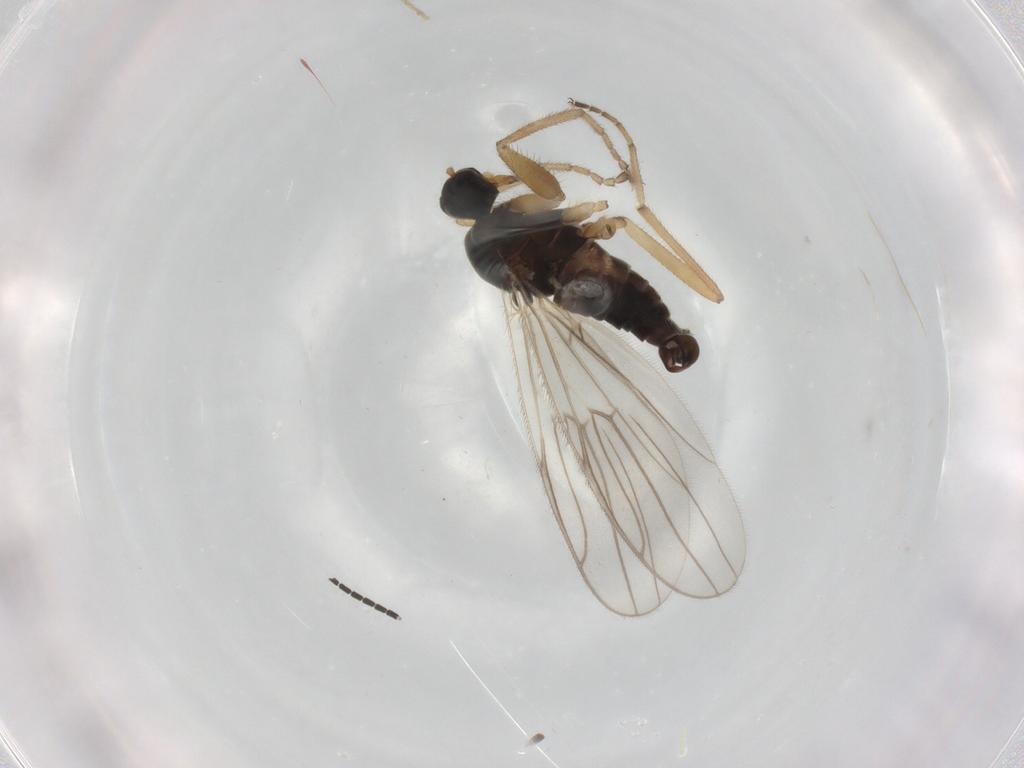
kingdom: Animalia
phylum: Arthropoda
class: Insecta
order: Diptera
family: Hybotidae
